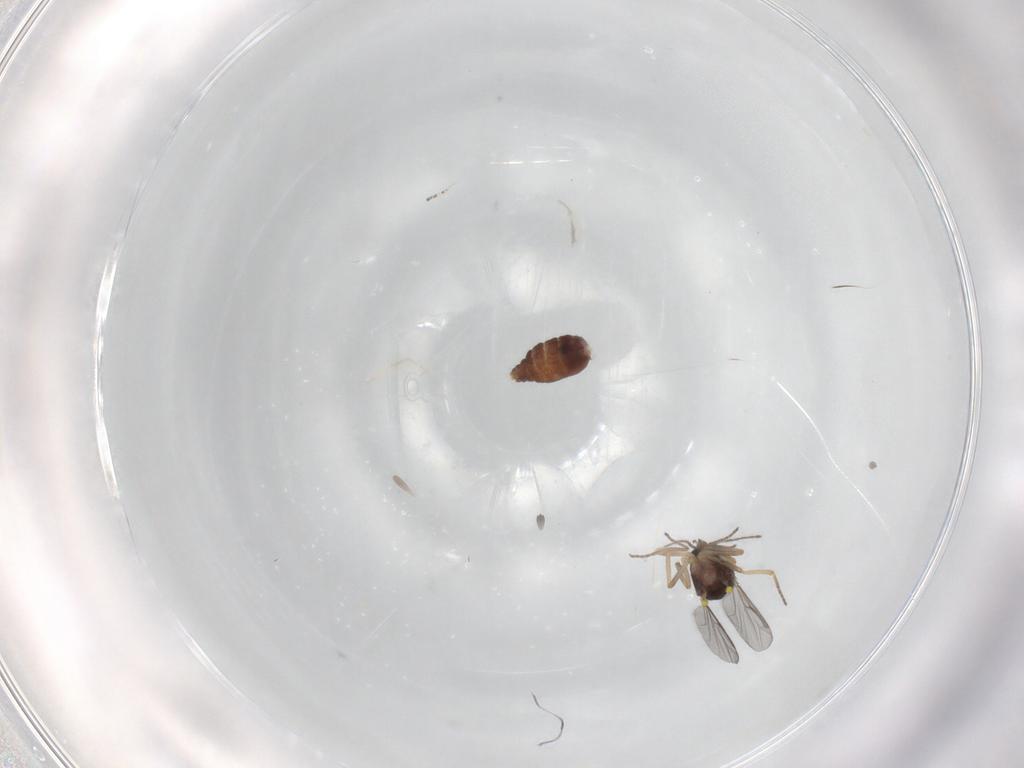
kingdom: Animalia
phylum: Arthropoda
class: Insecta
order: Diptera
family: Ceratopogonidae
